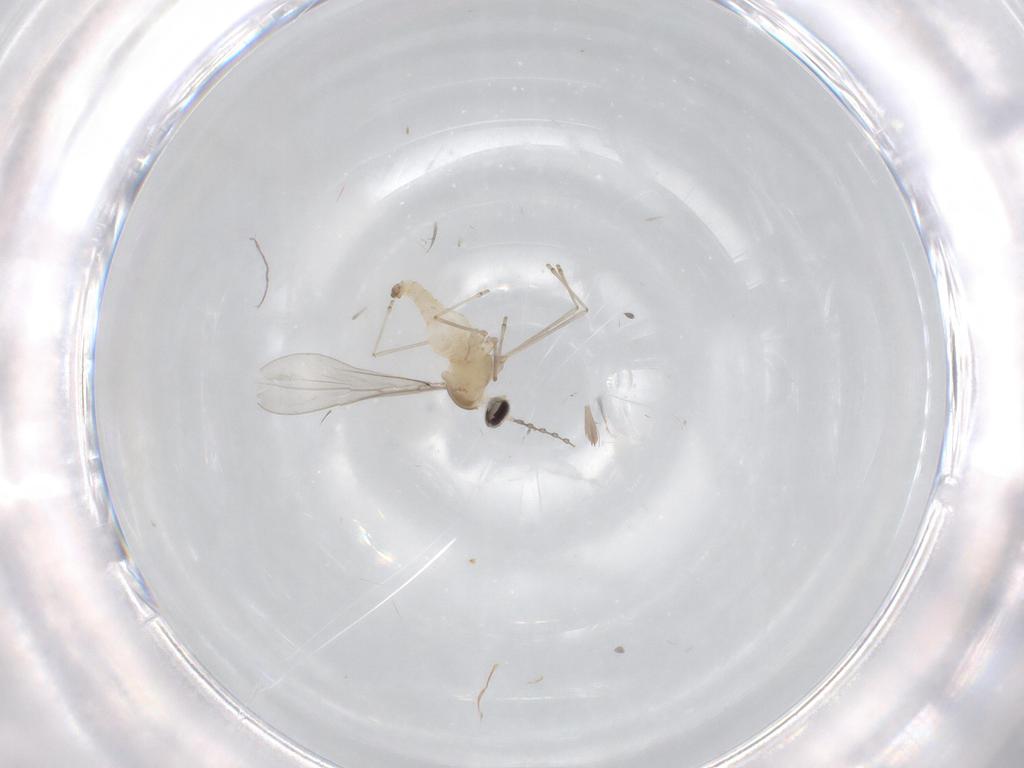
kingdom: Animalia
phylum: Arthropoda
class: Insecta
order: Diptera
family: Cecidomyiidae
